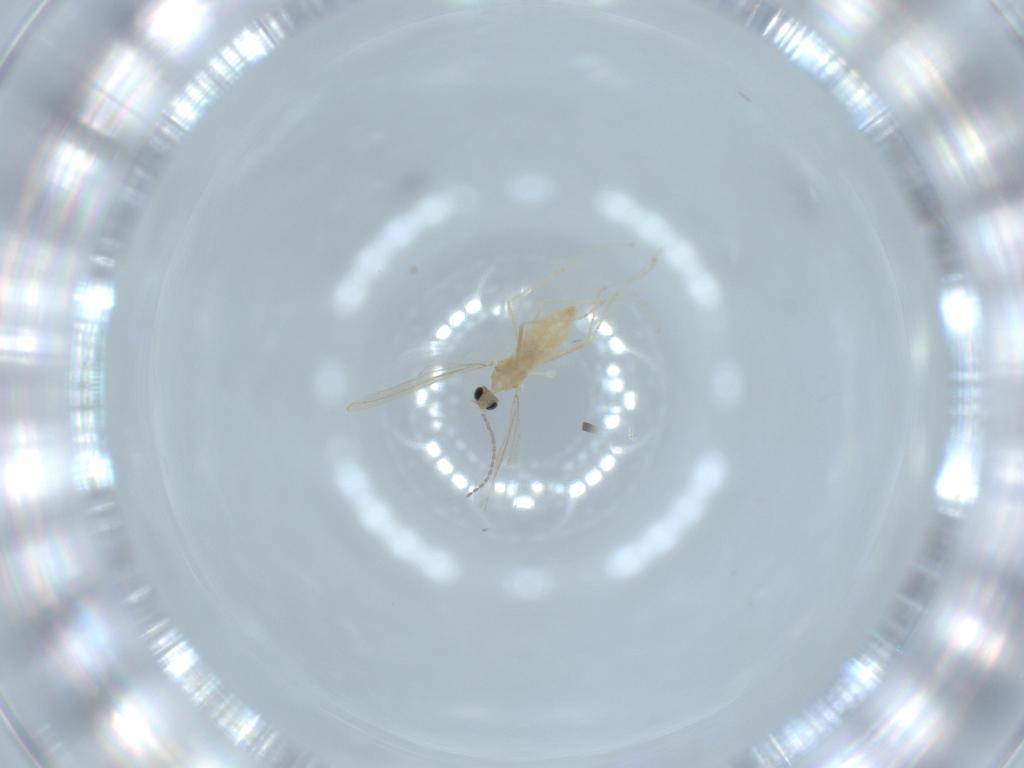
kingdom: Animalia
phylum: Arthropoda
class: Insecta
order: Diptera
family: Cecidomyiidae
